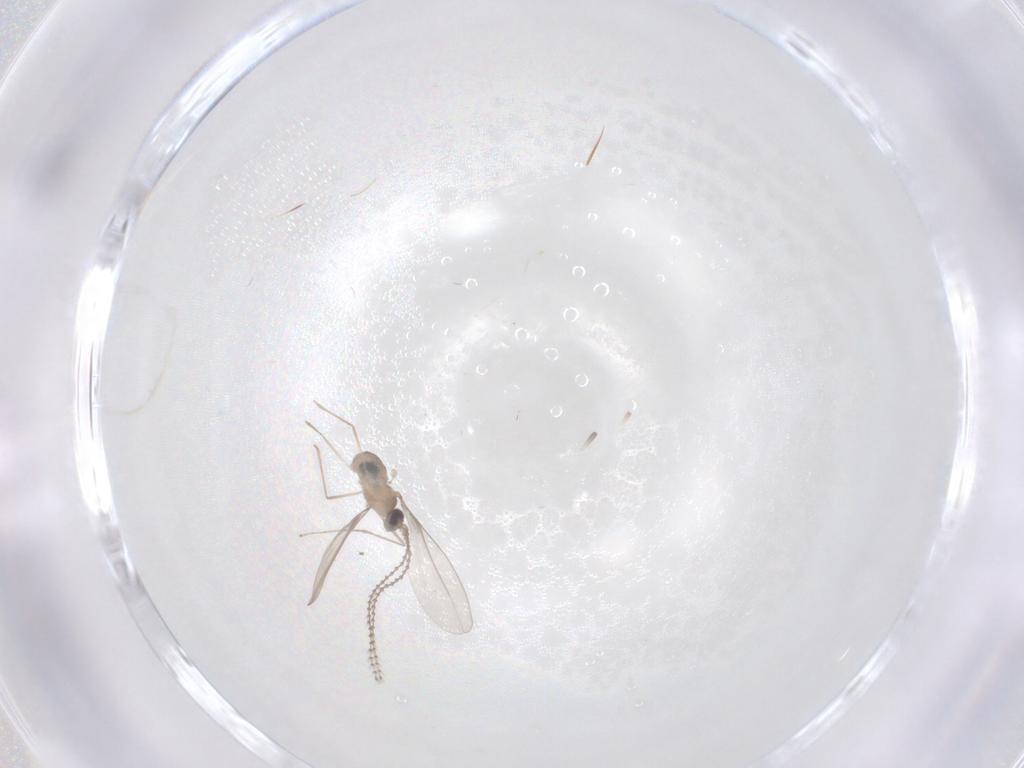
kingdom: Animalia
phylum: Arthropoda
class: Insecta
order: Diptera
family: Cecidomyiidae
